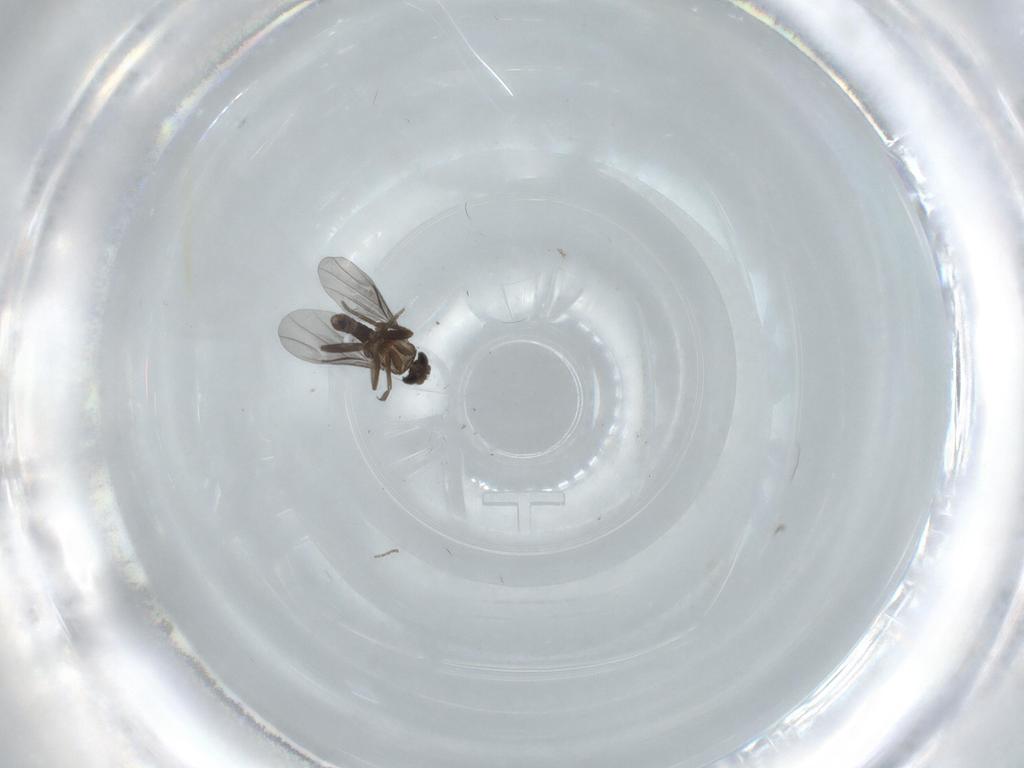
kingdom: Animalia
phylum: Arthropoda
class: Insecta
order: Diptera
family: Phoridae
